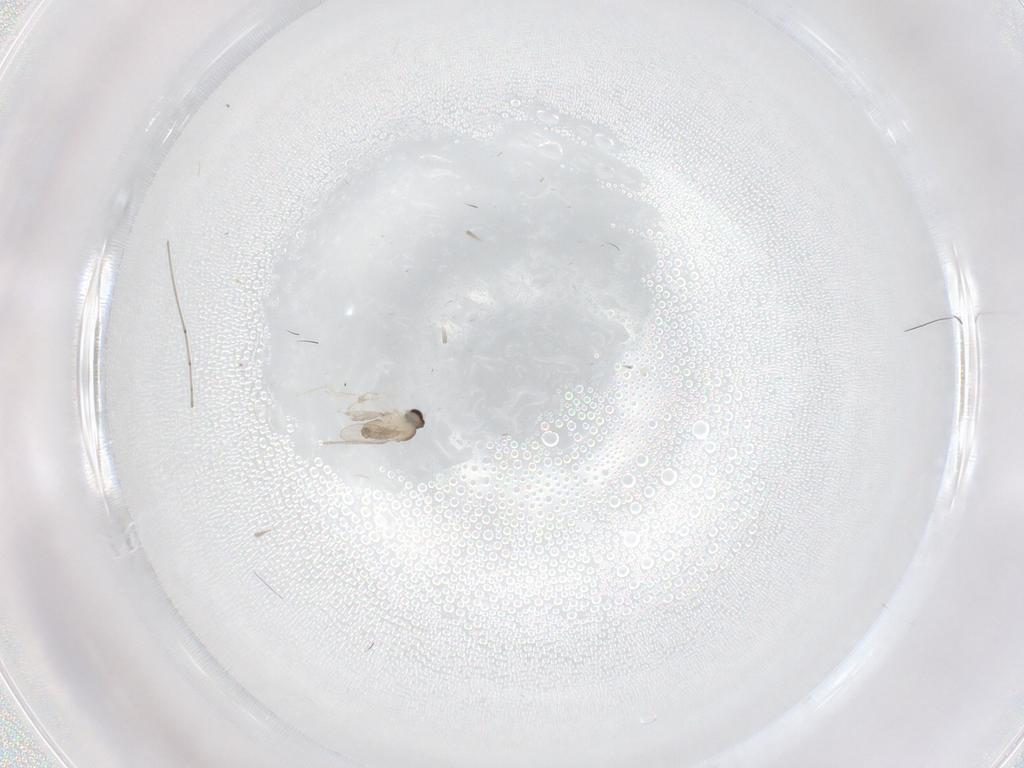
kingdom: Animalia
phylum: Arthropoda
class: Insecta
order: Diptera
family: Cecidomyiidae
